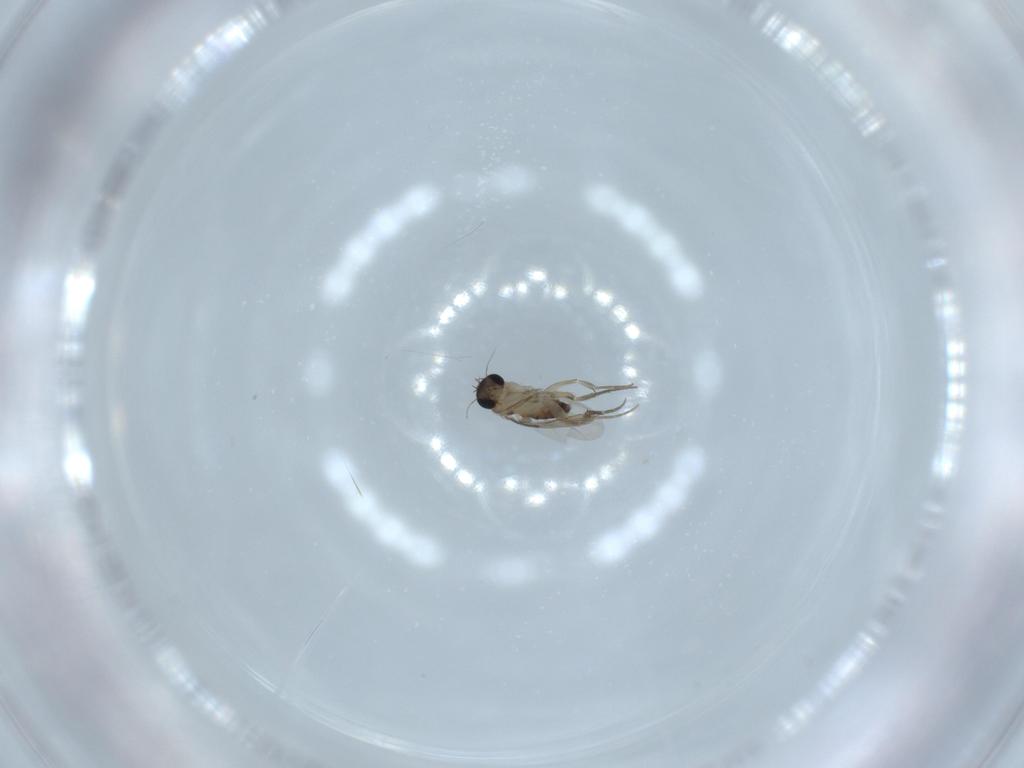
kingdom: Animalia
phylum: Arthropoda
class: Insecta
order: Diptera
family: Phoridae
